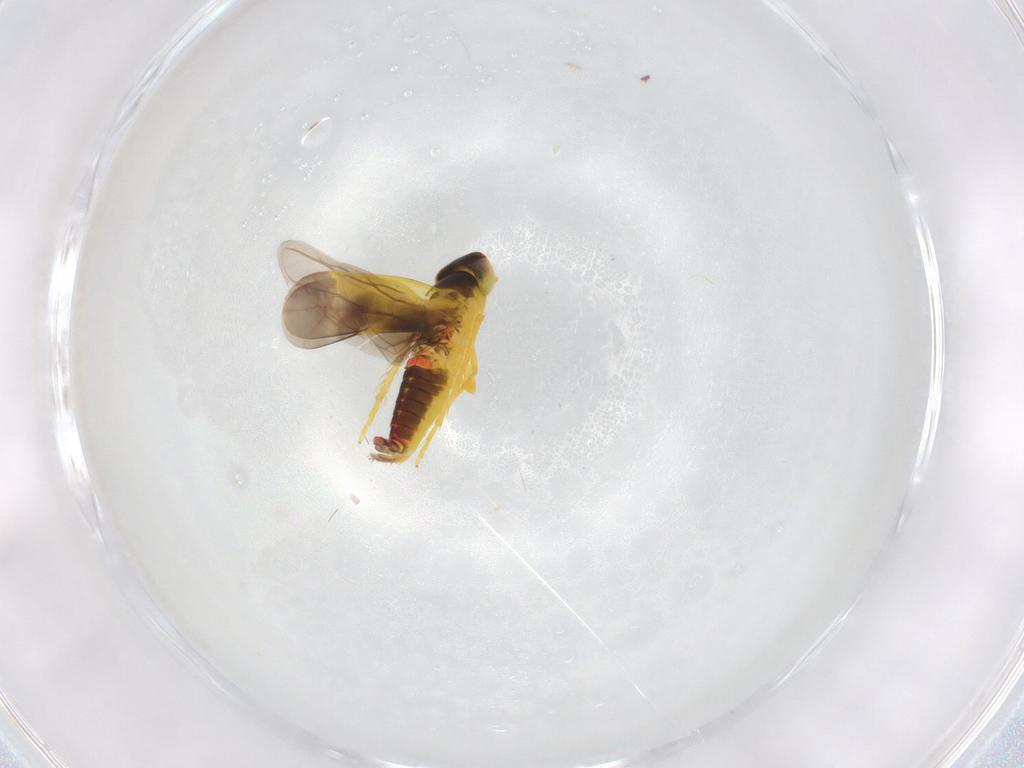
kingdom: Animalia
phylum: Arthropoda
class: Insecta
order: Hemiptera
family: Cicadellidae
